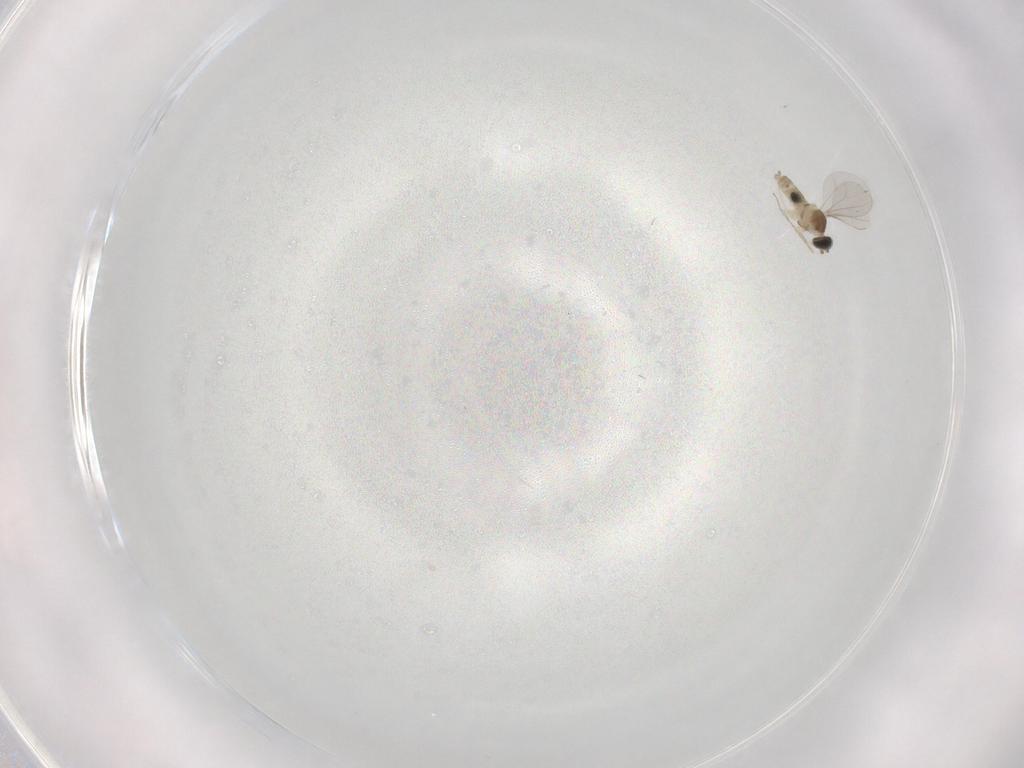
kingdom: Animalia
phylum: Arthropoda
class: Insecta
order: Diptera
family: Cecidomyiidae
